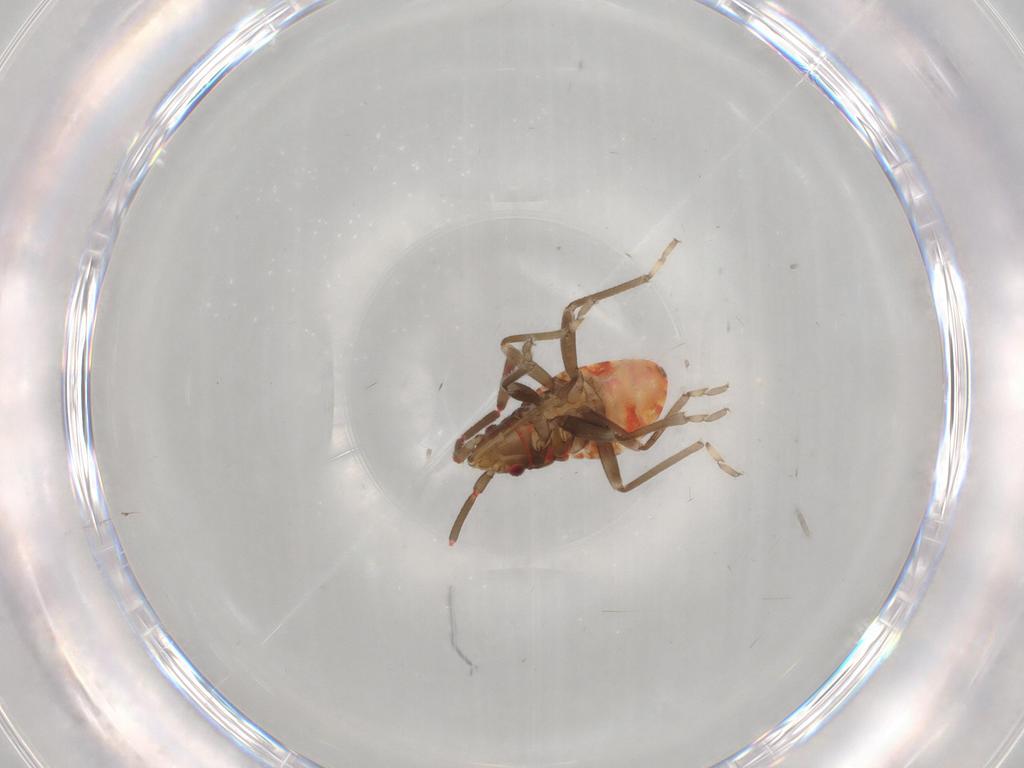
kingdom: Animalia
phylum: Arthropoda
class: Insecta
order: Hemiptera
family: Rhyparochromidae
